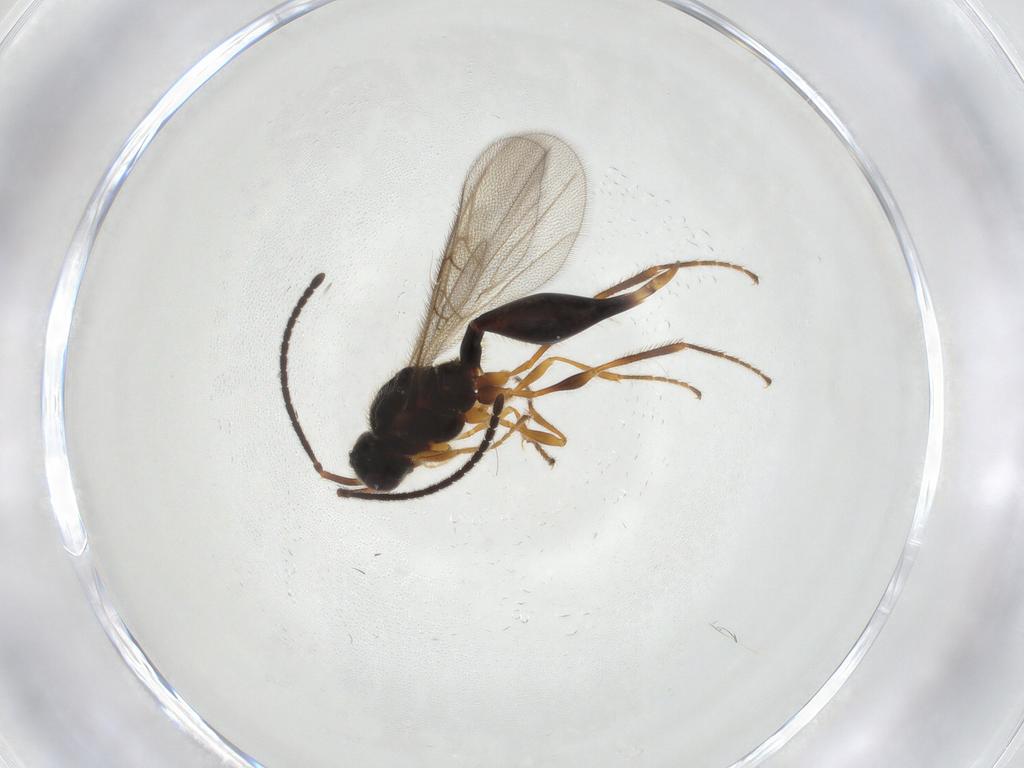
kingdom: Animalia
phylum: Arthropoda
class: Insecta
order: Hymenoptera
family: Diapriidae
